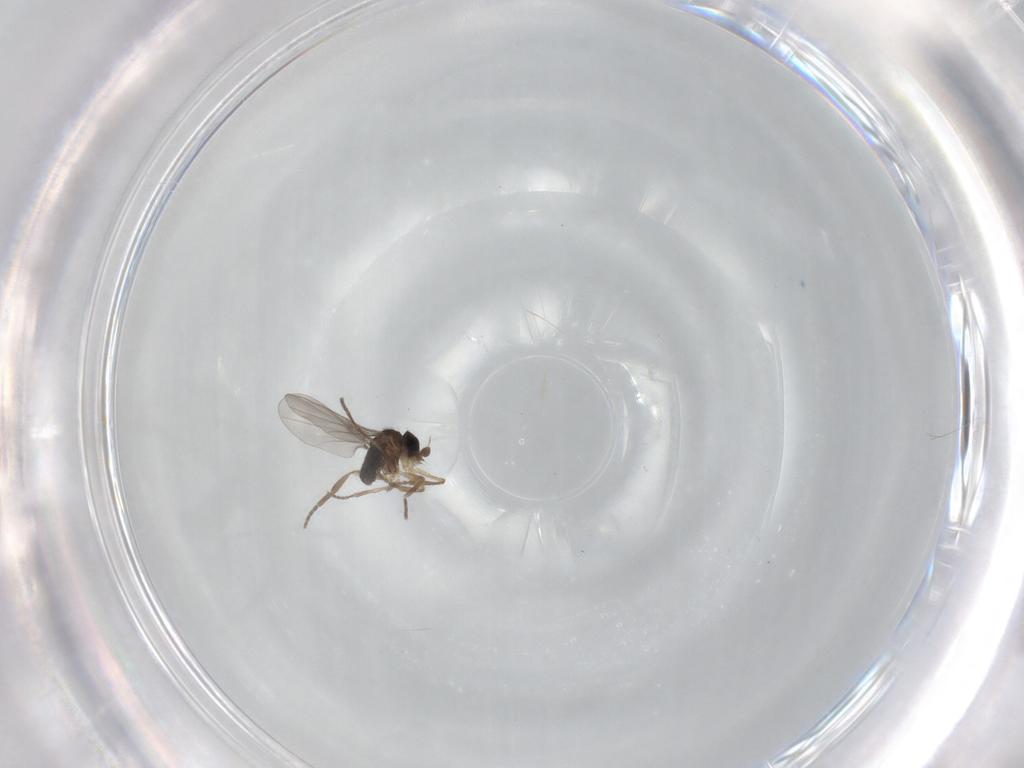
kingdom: Animalia
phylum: Arthropoda
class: Insecta
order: Diptera
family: Phoridae
